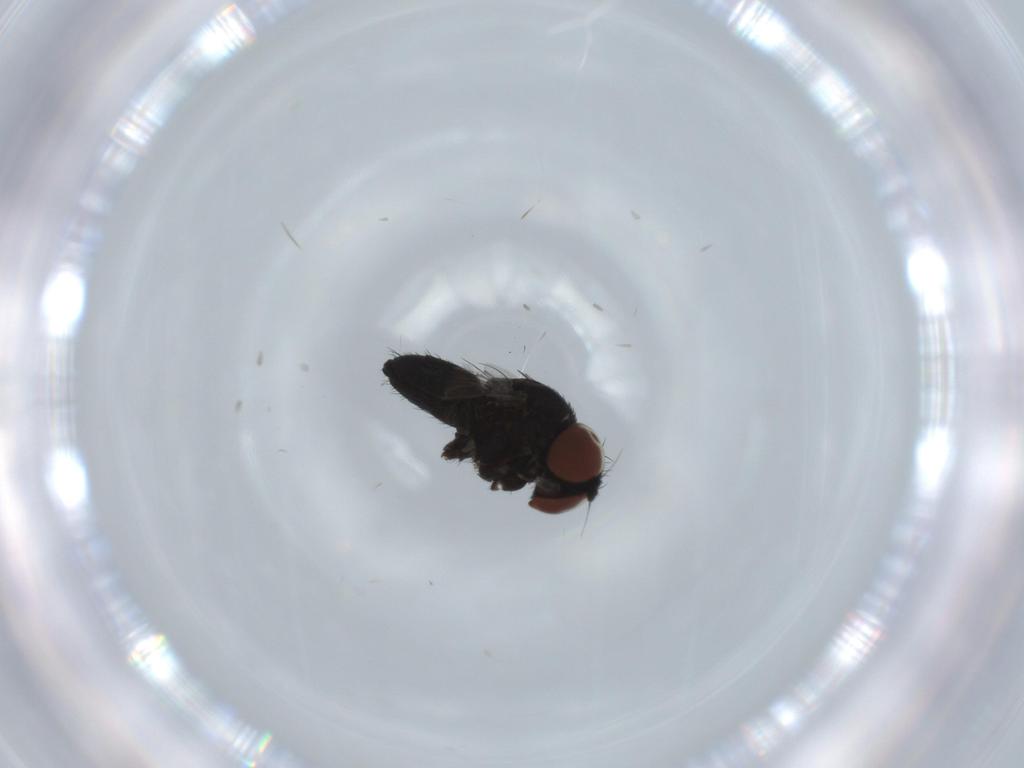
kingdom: Animalia
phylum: Arthropoda
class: Insecta
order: Diptera
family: Milichiidae
